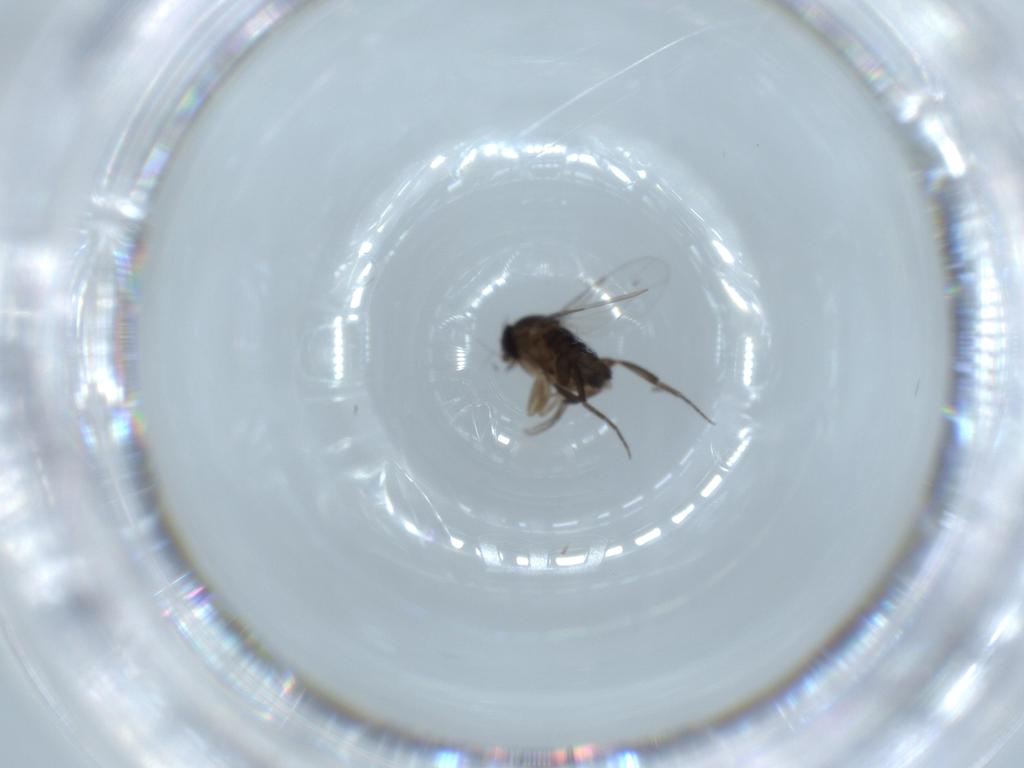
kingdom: Animalia
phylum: Arthropoda
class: Insecta
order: Diptera
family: Phoridae
